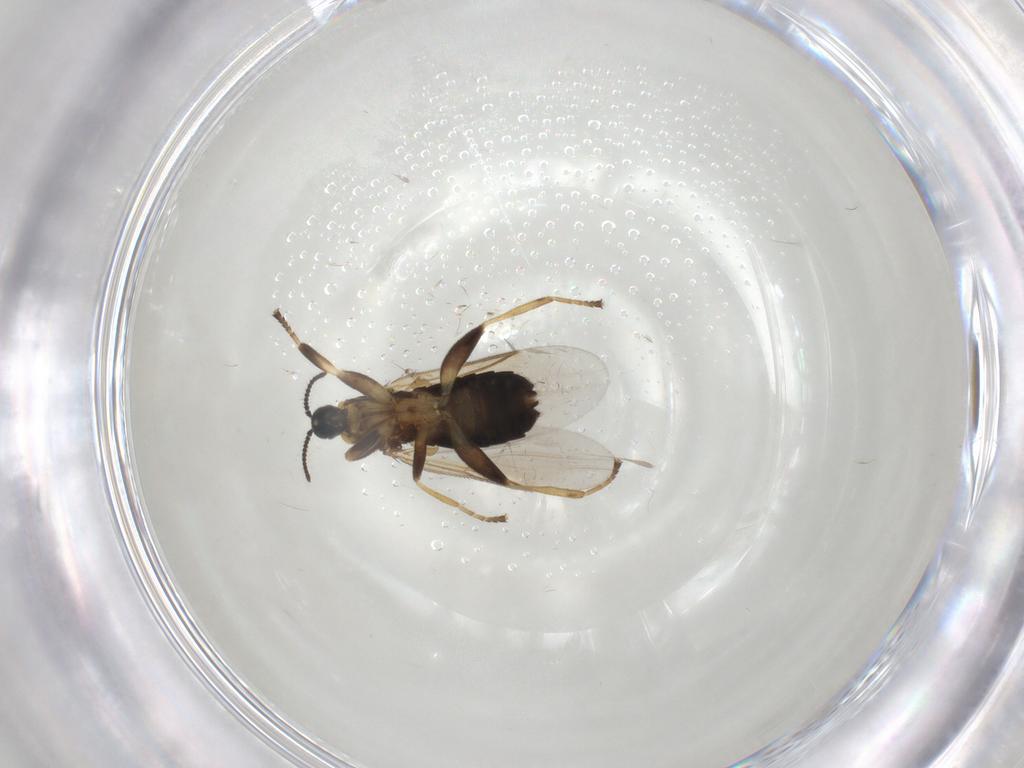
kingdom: Animalia
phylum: Arthropoda
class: Insecta
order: Diptera
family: Scatopsidae
